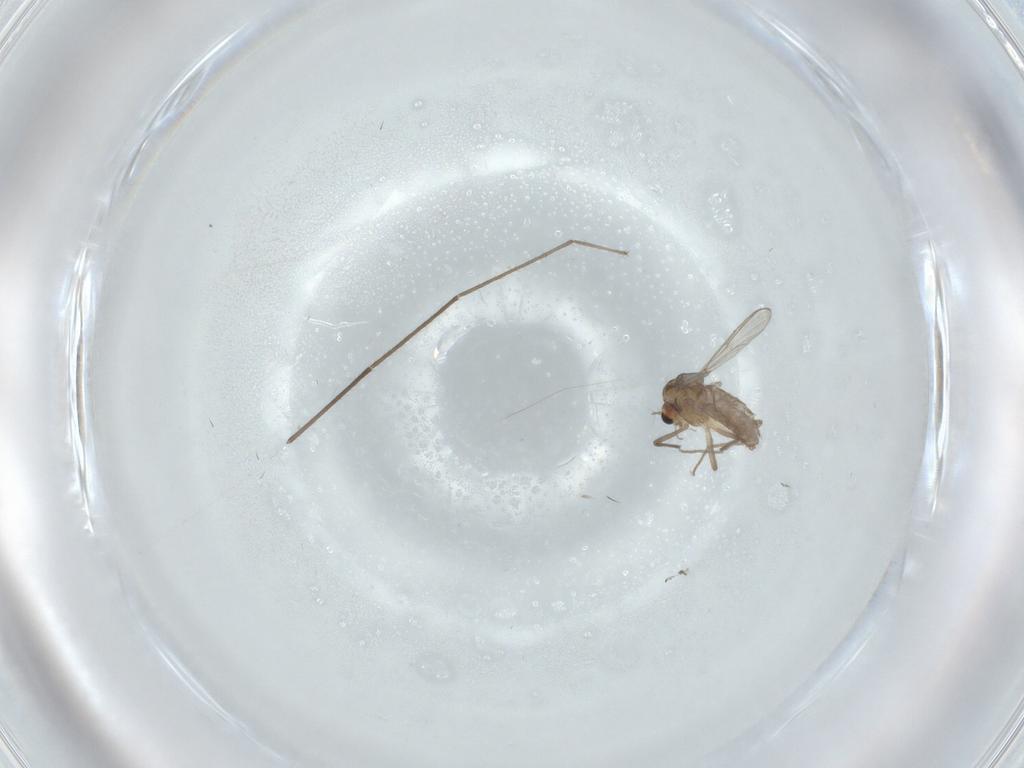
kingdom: Animalia
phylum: Arthropoda
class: Insecta
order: Diptera
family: Chironomidae
